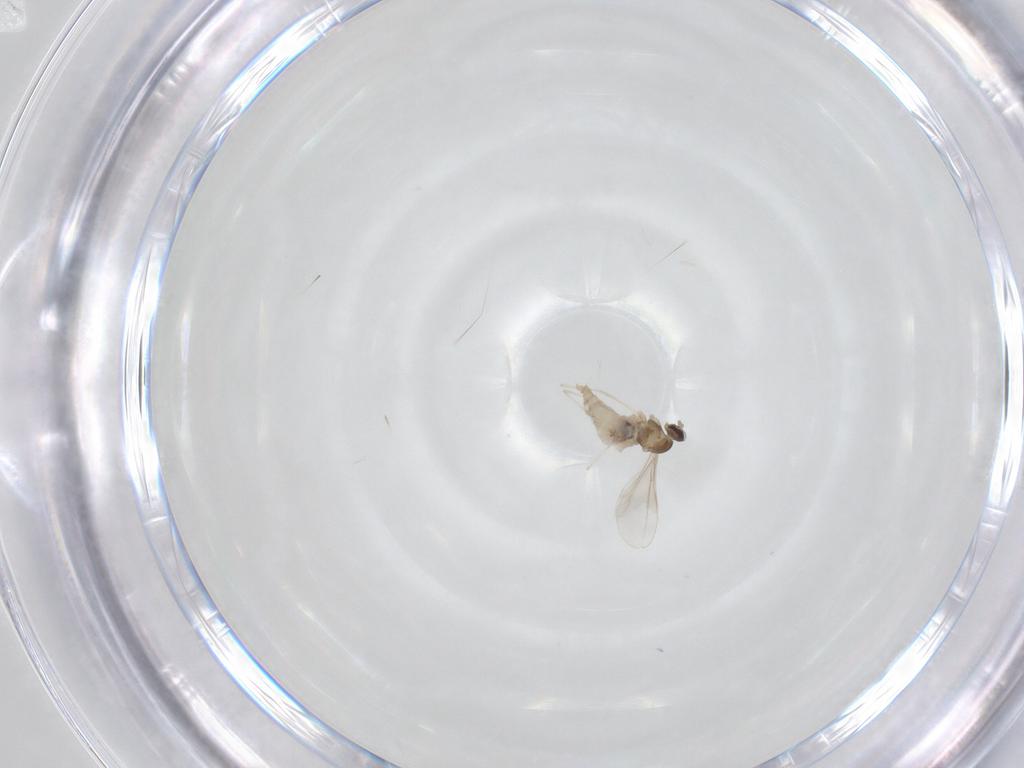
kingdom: Animalia
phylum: Arthropoda
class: Insecta
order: Diptera
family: Cecidomyiidae
